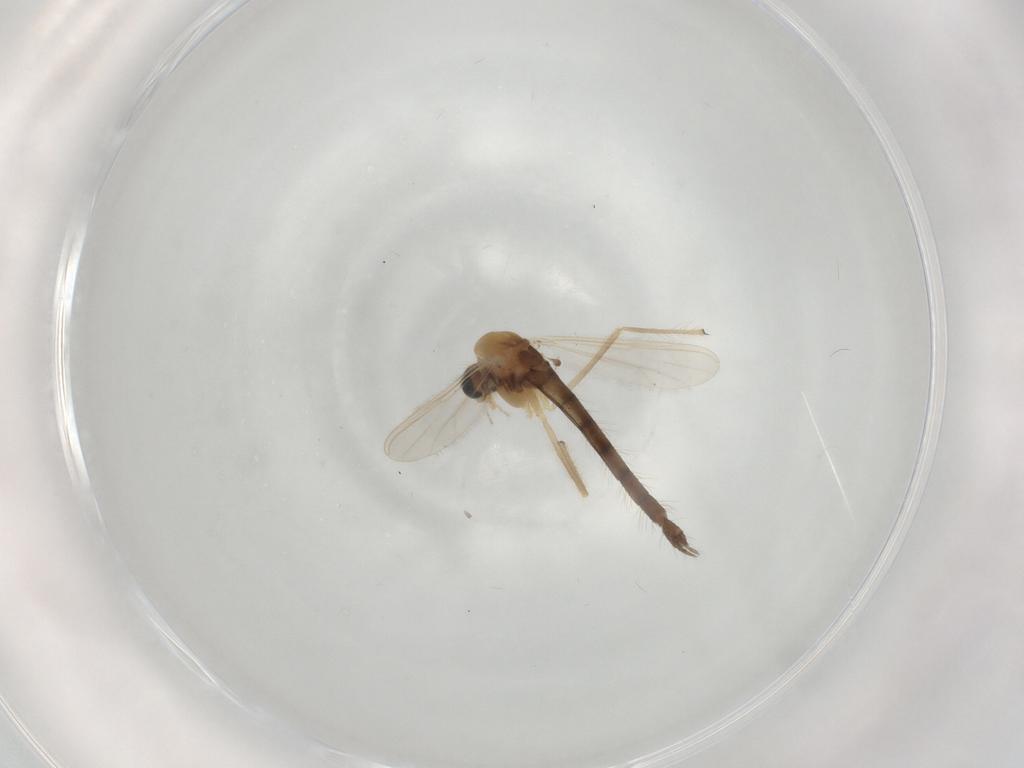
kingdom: Animalia
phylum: Arthropoda
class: Insecta
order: Diptera
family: Chironomidae
